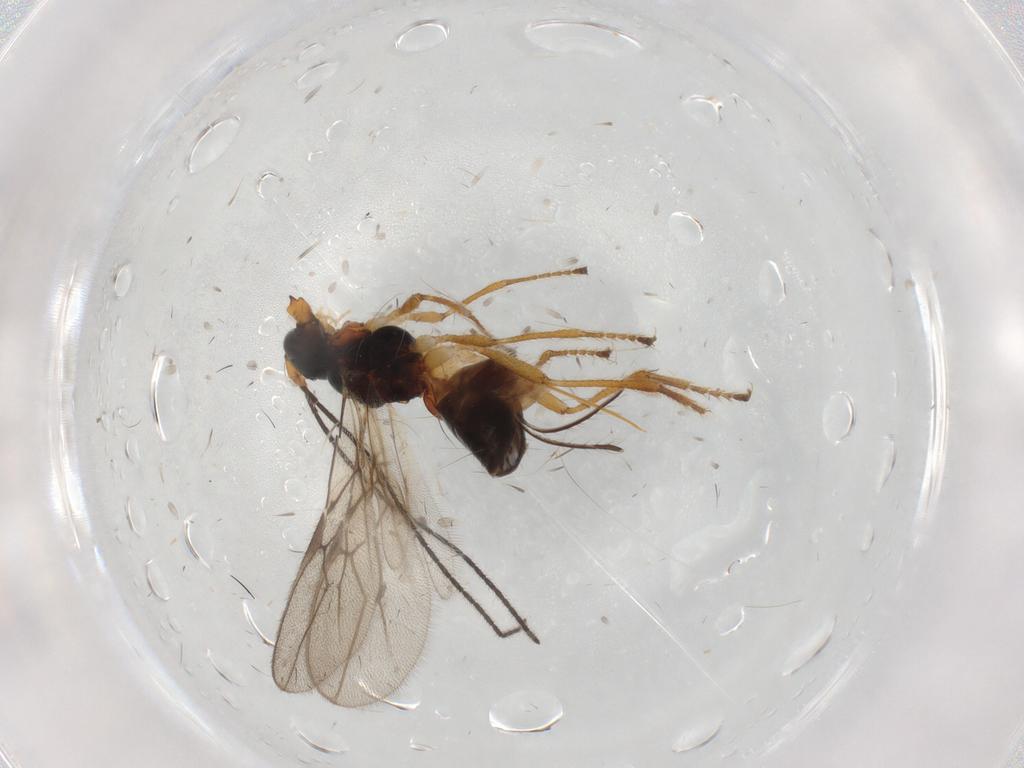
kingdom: Animalia
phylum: Arthropoda
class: Insecta
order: Hymenoptera
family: Braconidae
